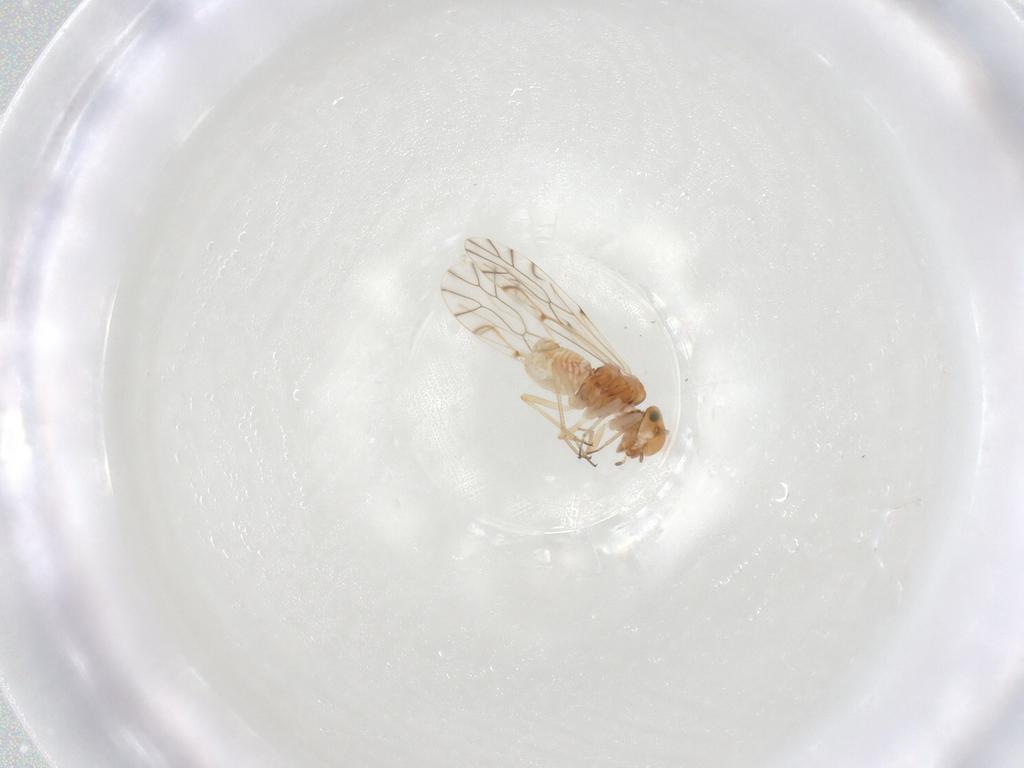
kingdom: Animalia
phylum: Arthropoda
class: Insecta
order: Psocodea
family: Lachesillidae
